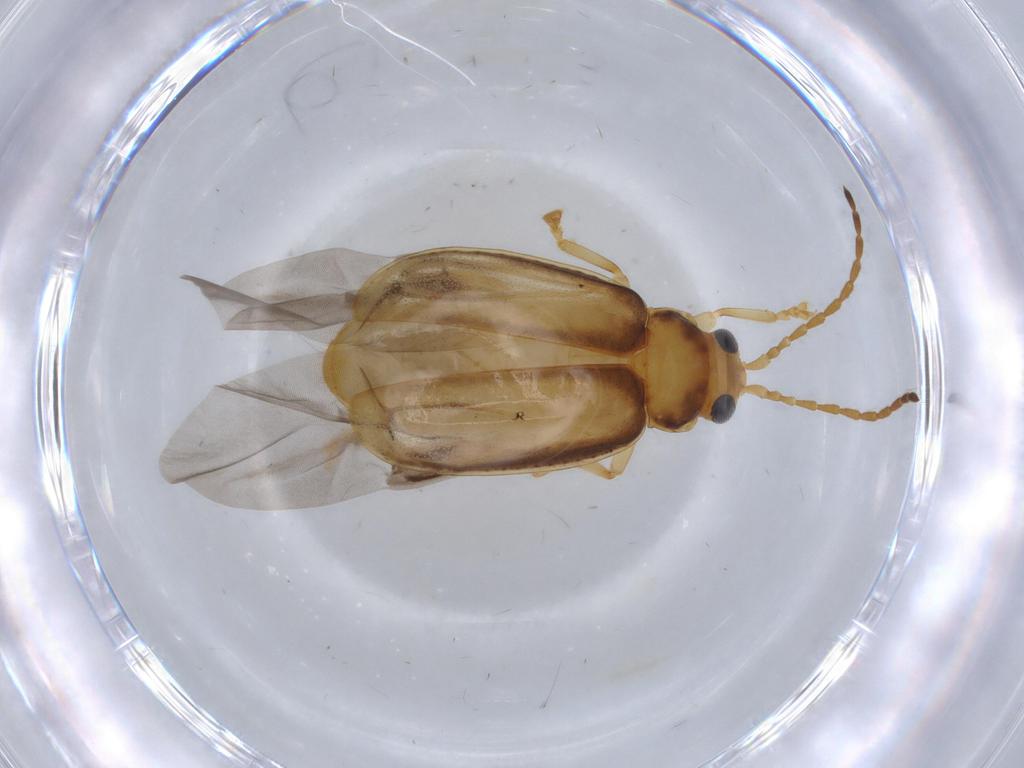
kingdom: Animalia
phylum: Arthropoda
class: Insecta
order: Coleoptera
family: Chrysomelidae
